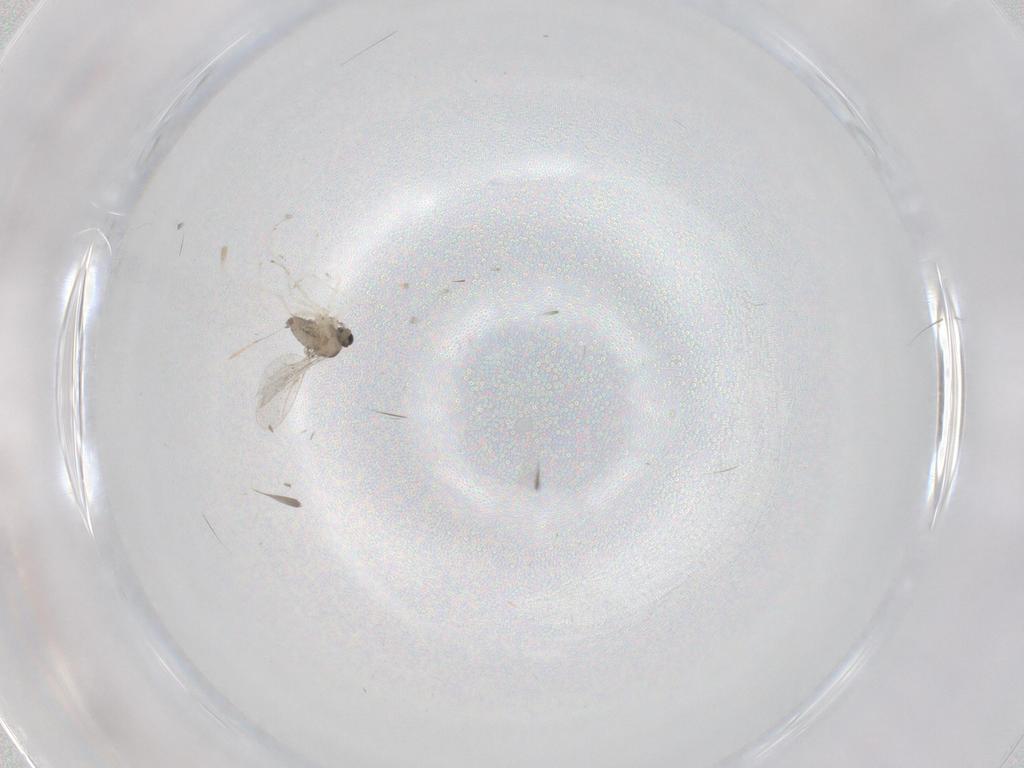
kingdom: Animalia
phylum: Arthropoda
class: Insecta
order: Diptera
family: Cecidomyiidae
